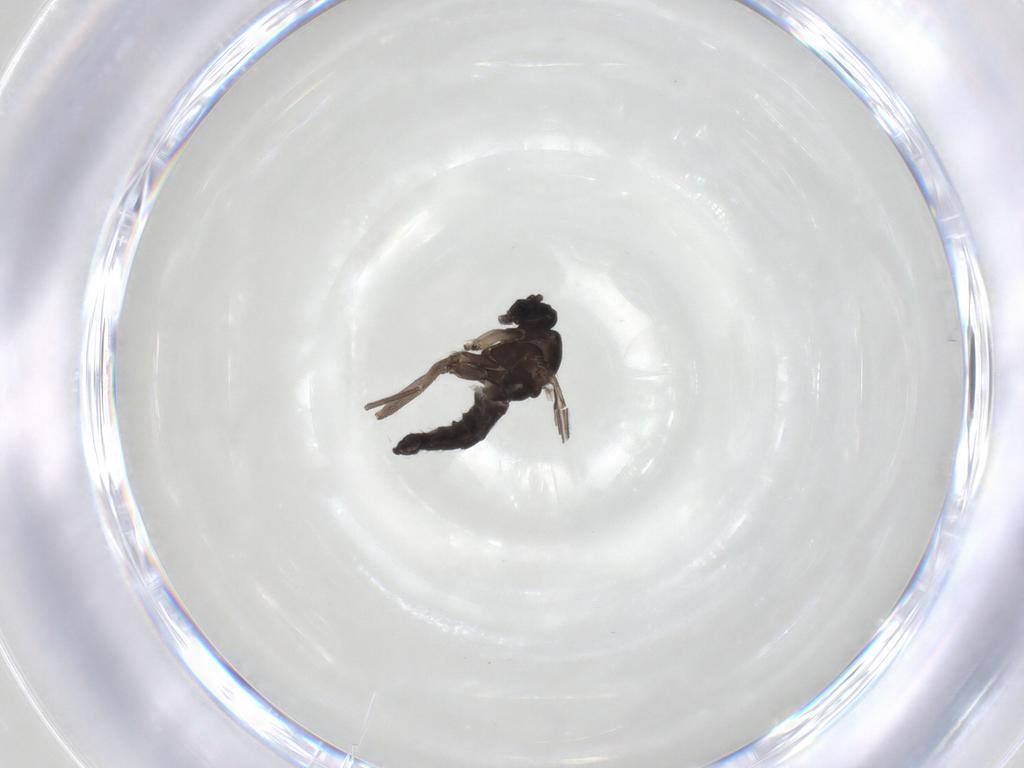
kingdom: Animalia
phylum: Arthropoda
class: Insecta
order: Diptera
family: Sciaridae
